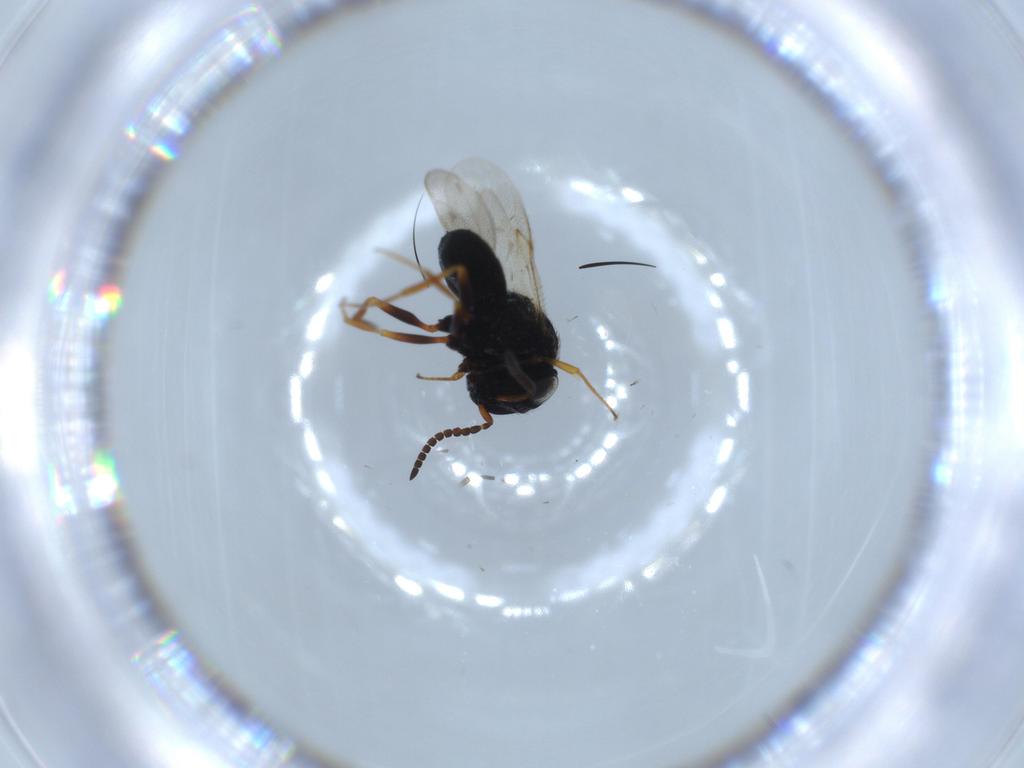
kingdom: Animalia
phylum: Arthropoda
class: Insecta
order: Hymenoptera
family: Scelionidae
